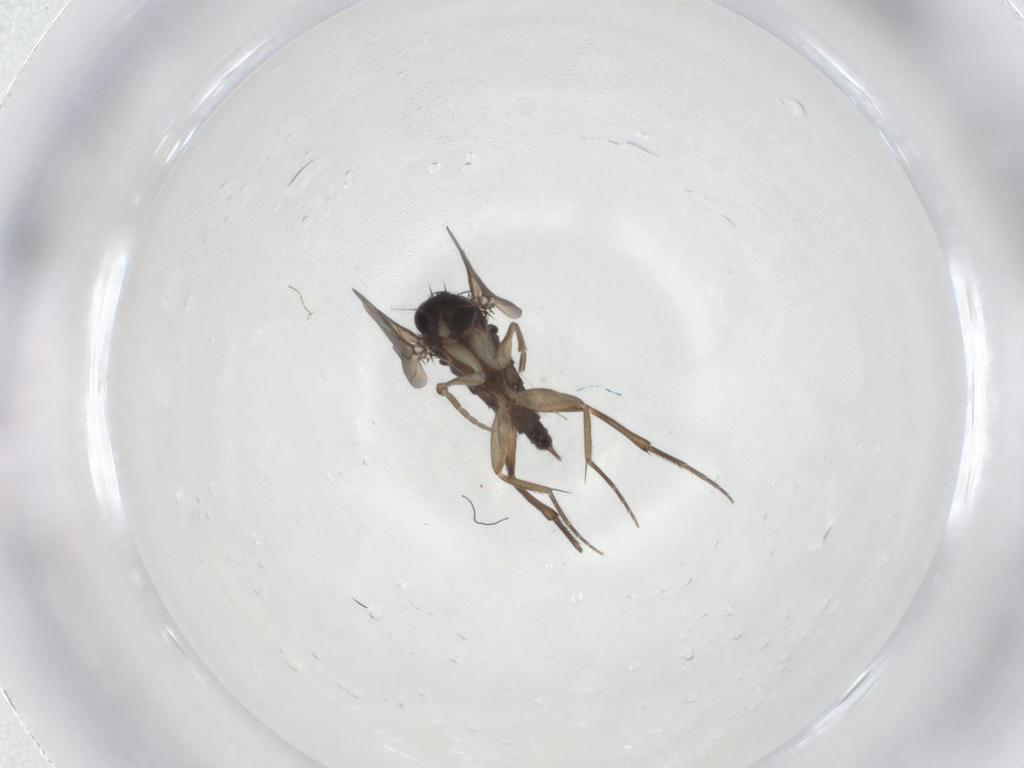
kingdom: Animalia
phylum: Arthropoda
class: Insecta
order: Diptera
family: Phoridae
